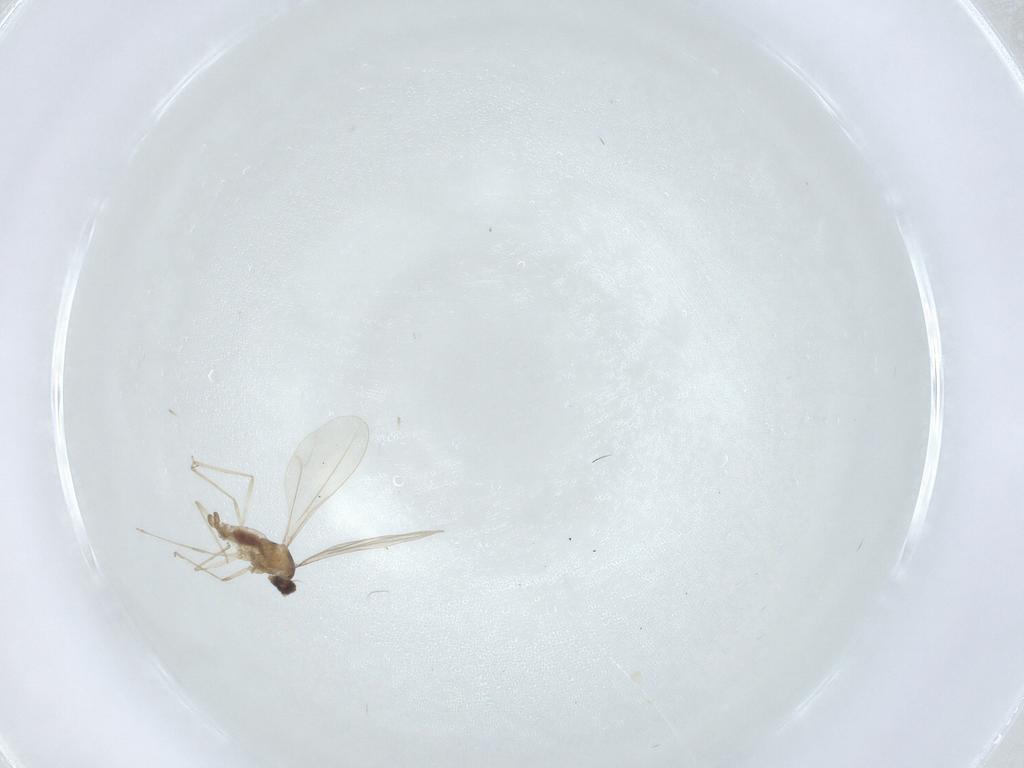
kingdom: Animalia
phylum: Arthropoda
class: Insecta
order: Diptera
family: Cecidomyiidae
